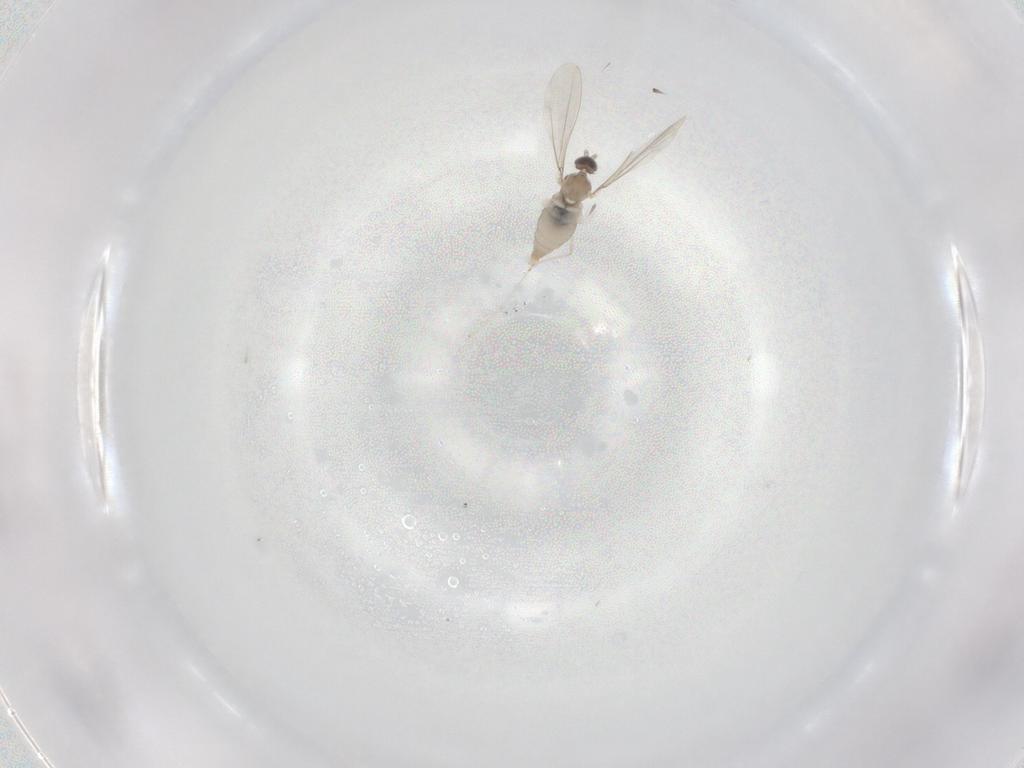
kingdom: Animalia
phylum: Arthropoda
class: Insecta
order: Diptera
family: Cecidomyiidae
